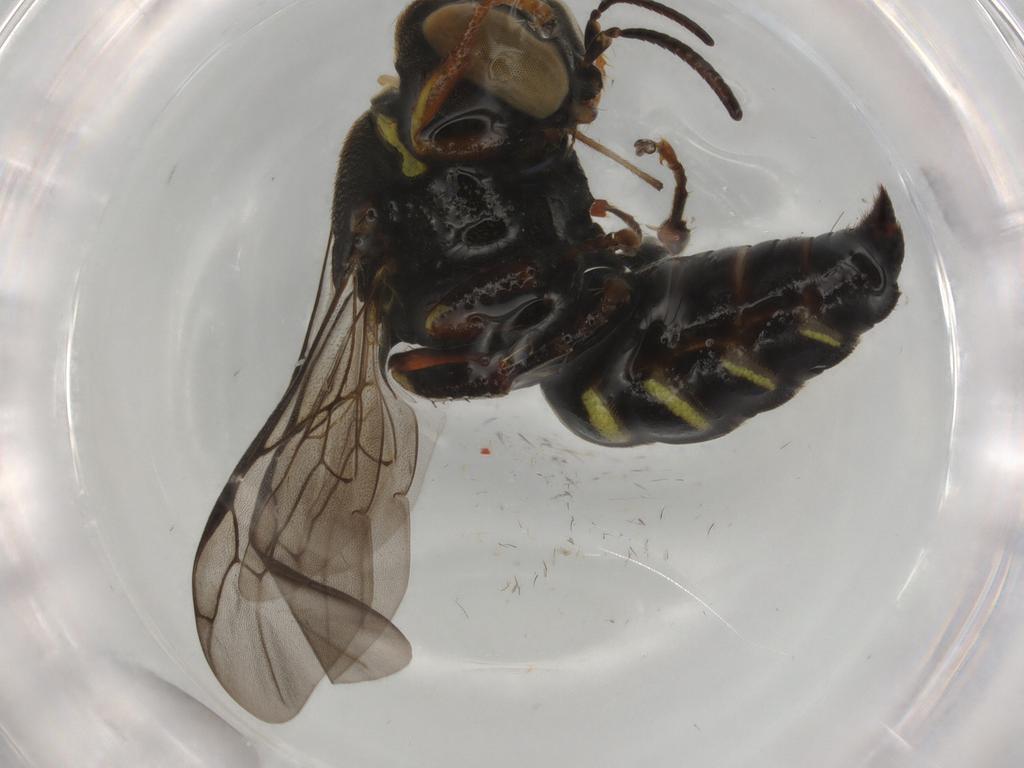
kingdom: Animalia
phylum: Arthropoda
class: Insecta
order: Hymenoptera
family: Crabronidae
